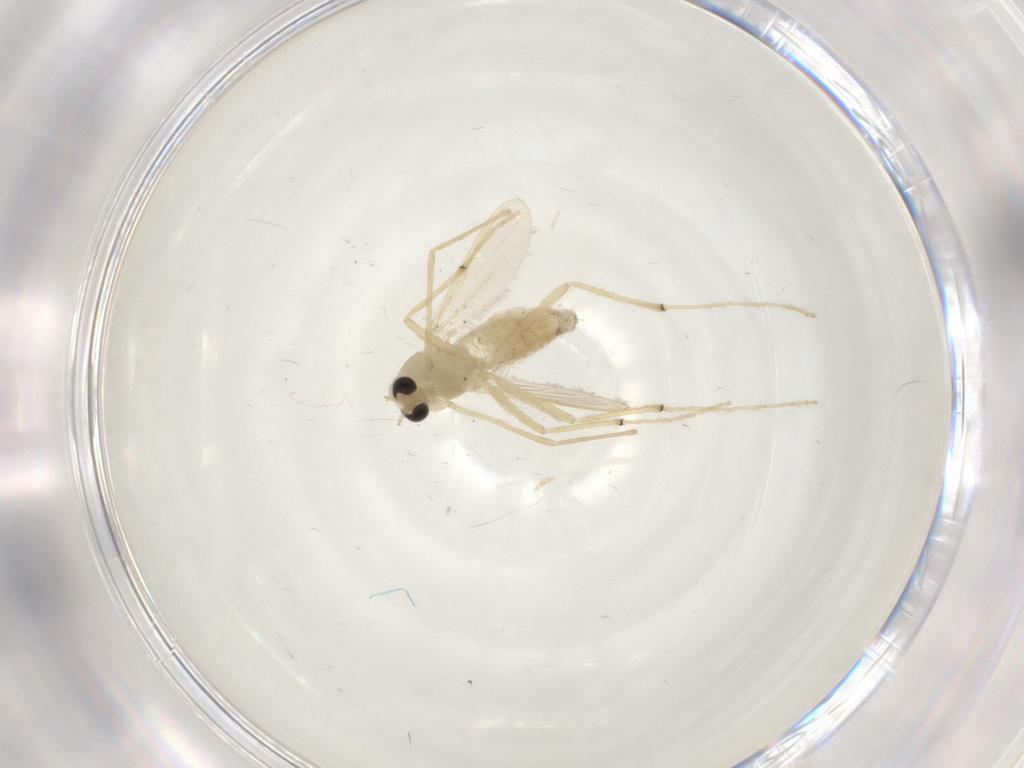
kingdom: Animalia
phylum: Arthropoda
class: Insecta
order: Diptera
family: Chironomidae
